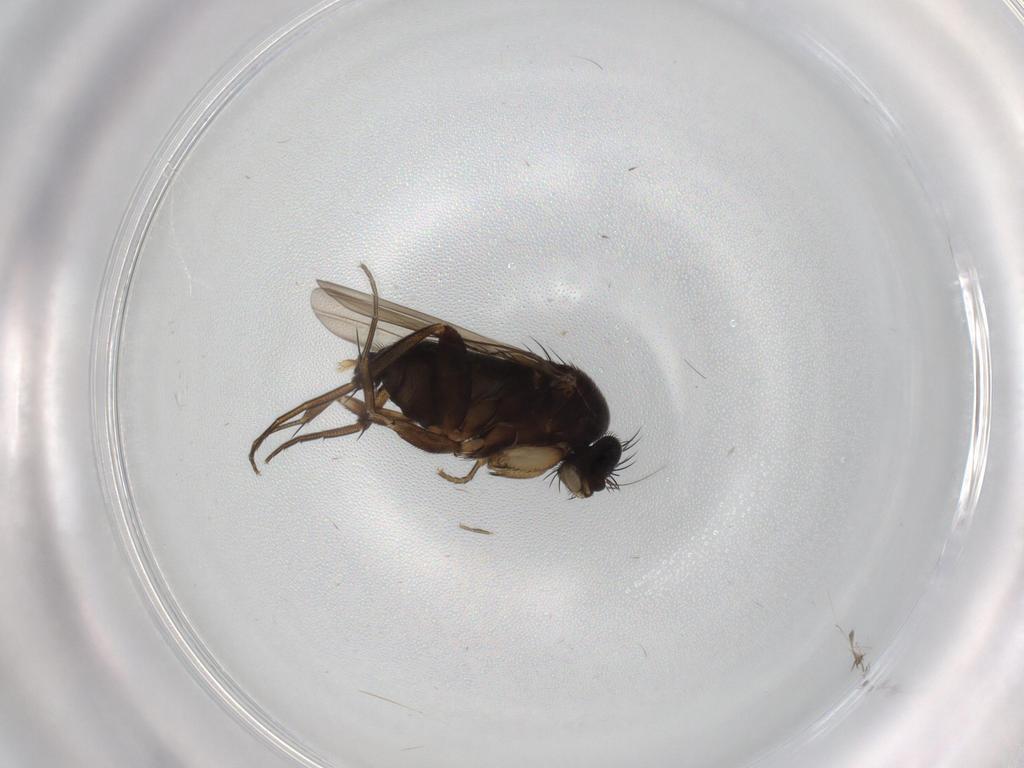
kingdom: Animalia
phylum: Arthropoda
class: Insecta
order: Diptera
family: Phoridae
